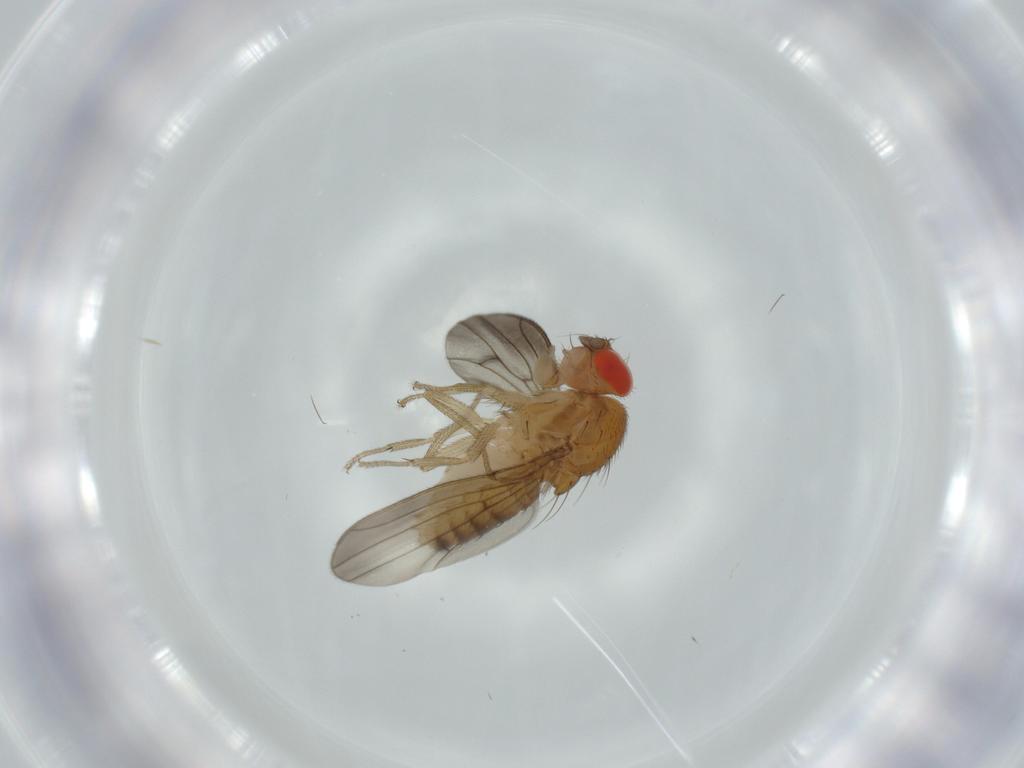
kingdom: Animalia
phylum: Arthropoda
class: Insecta
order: Diptera
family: Drosophilidae
